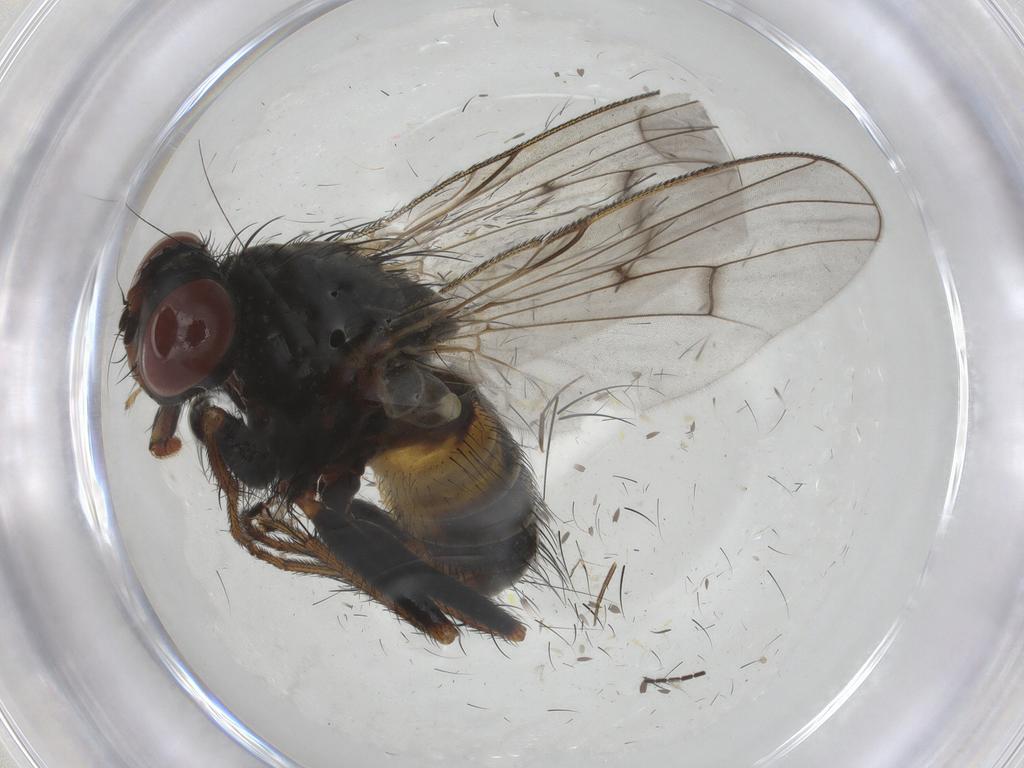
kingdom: Animalia
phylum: Arthropoda
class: Insecta
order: Diptera
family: Muscidae
